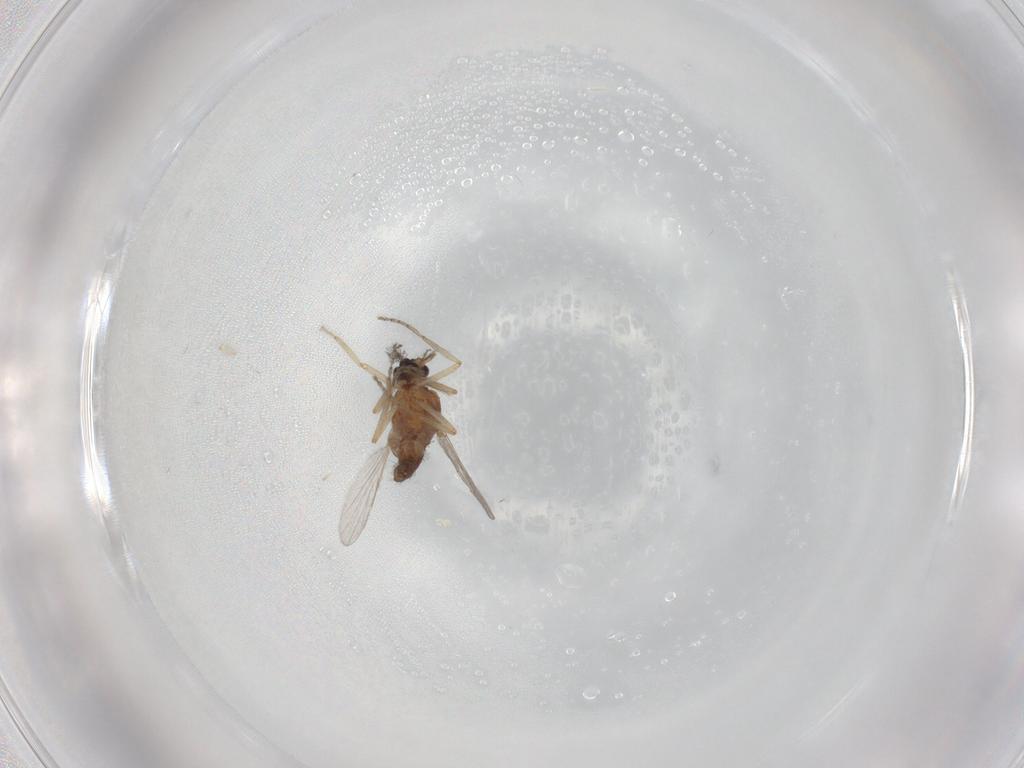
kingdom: Animalia
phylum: Arthropoda
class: Insecta
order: Diptera
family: Ceratopogonidae
